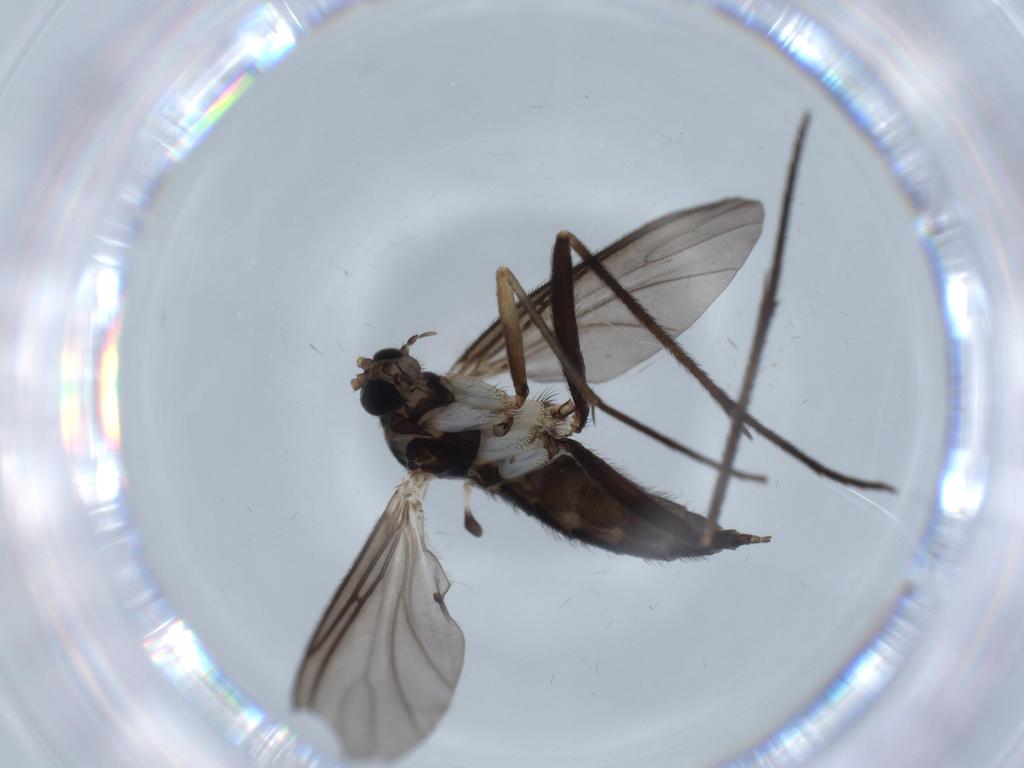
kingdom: Animalia
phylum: Arthropoda
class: Insecta
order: Diptera
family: Sciaridae
